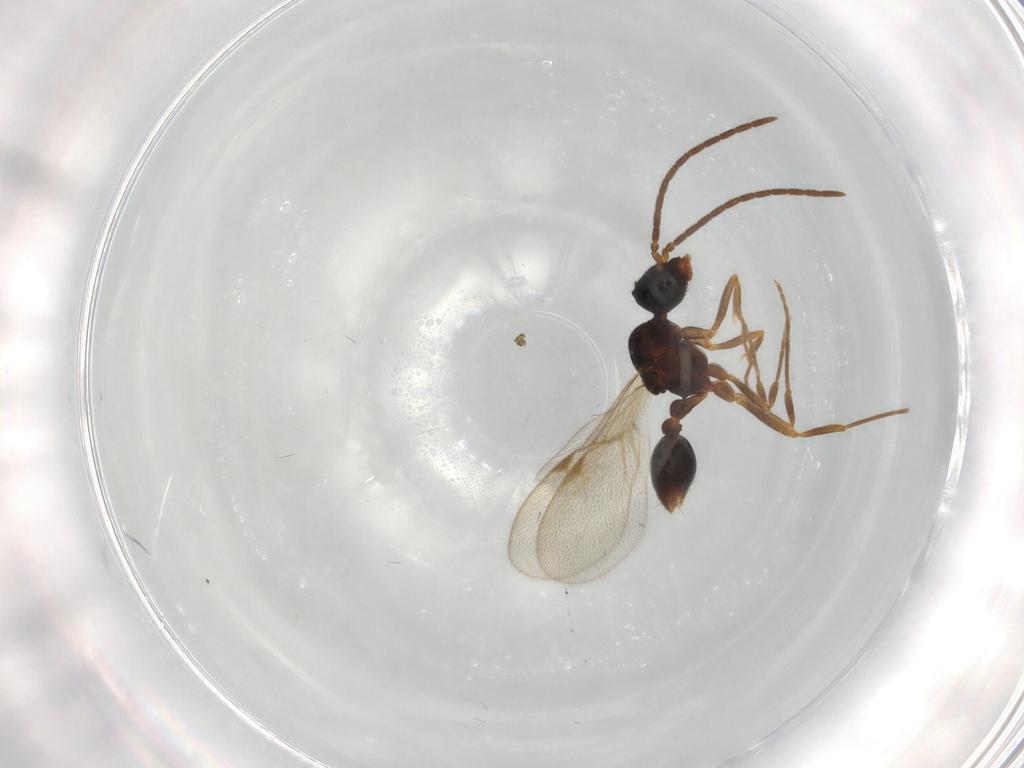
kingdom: Animalia
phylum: Arthropoda
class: Insecta
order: Hymenoptera
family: Formicidae
